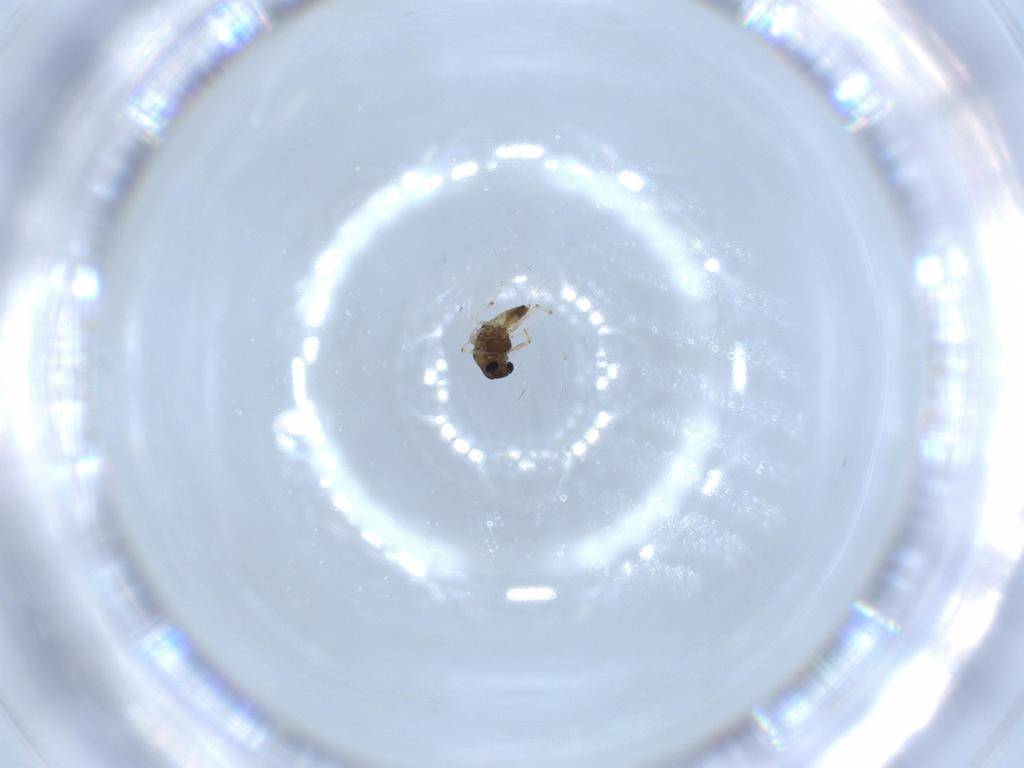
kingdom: Animalia
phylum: Arthropoda
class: Insecta
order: Diptera
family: Chironomidae
